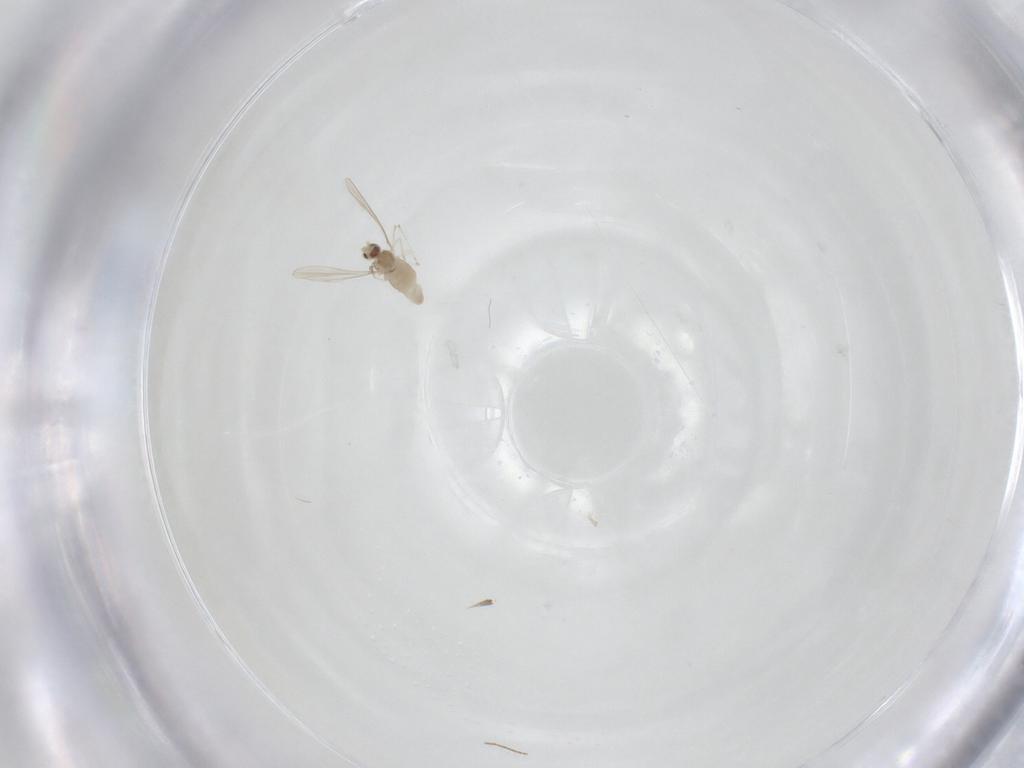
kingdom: Animalia
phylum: Arthropoda
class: Insecta
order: Diptera
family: Cecidomyiidae
